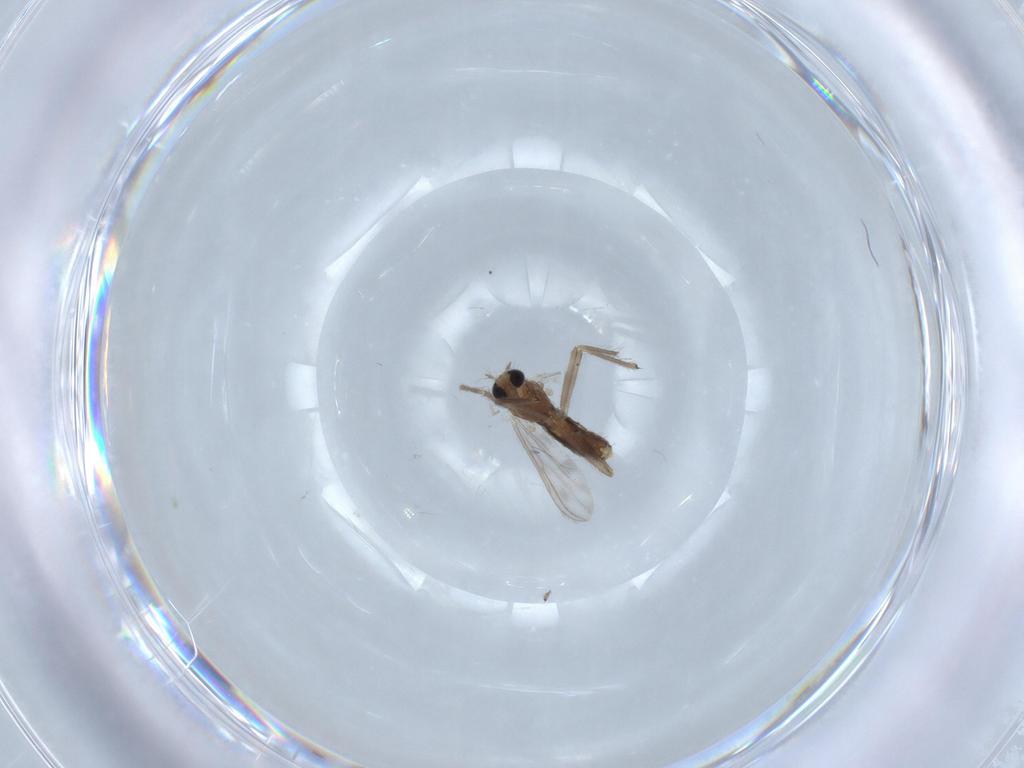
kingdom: Animalia
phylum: Arthropoda
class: Insecta
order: Diptera
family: Chironomidae
